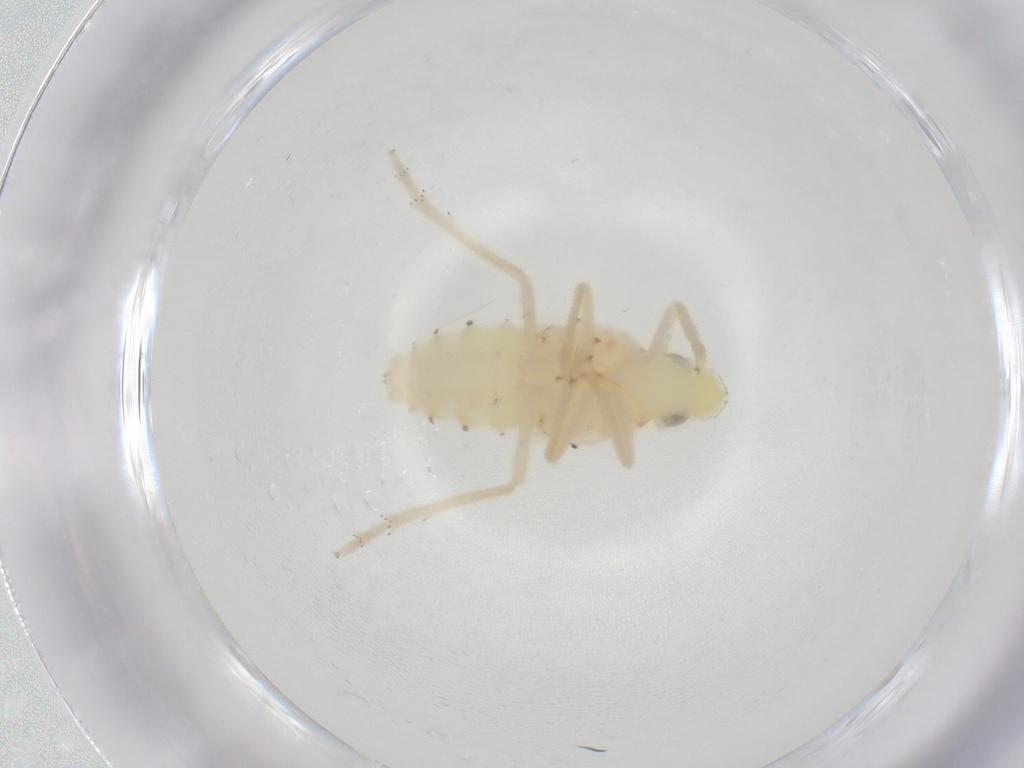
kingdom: Animalia
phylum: Arthropoda
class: Insecta
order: Hemiptera
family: Tropiduchidae
